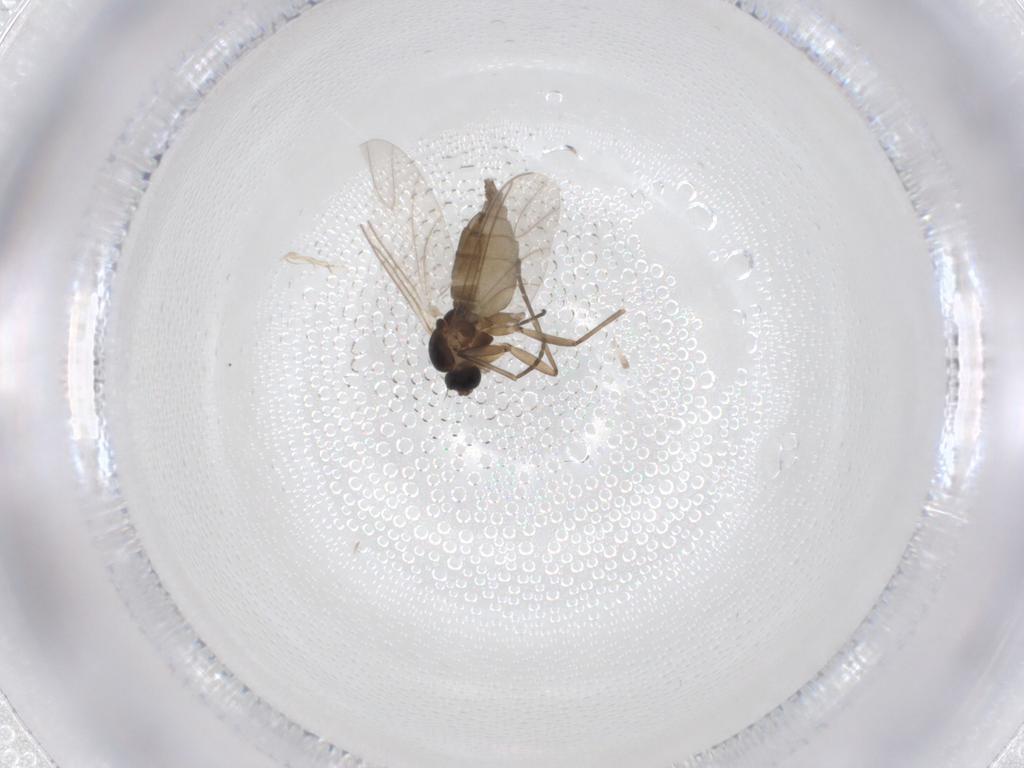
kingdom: Animalia
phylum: Arthropoda
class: Insecta
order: Diptera
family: Chironomidae
